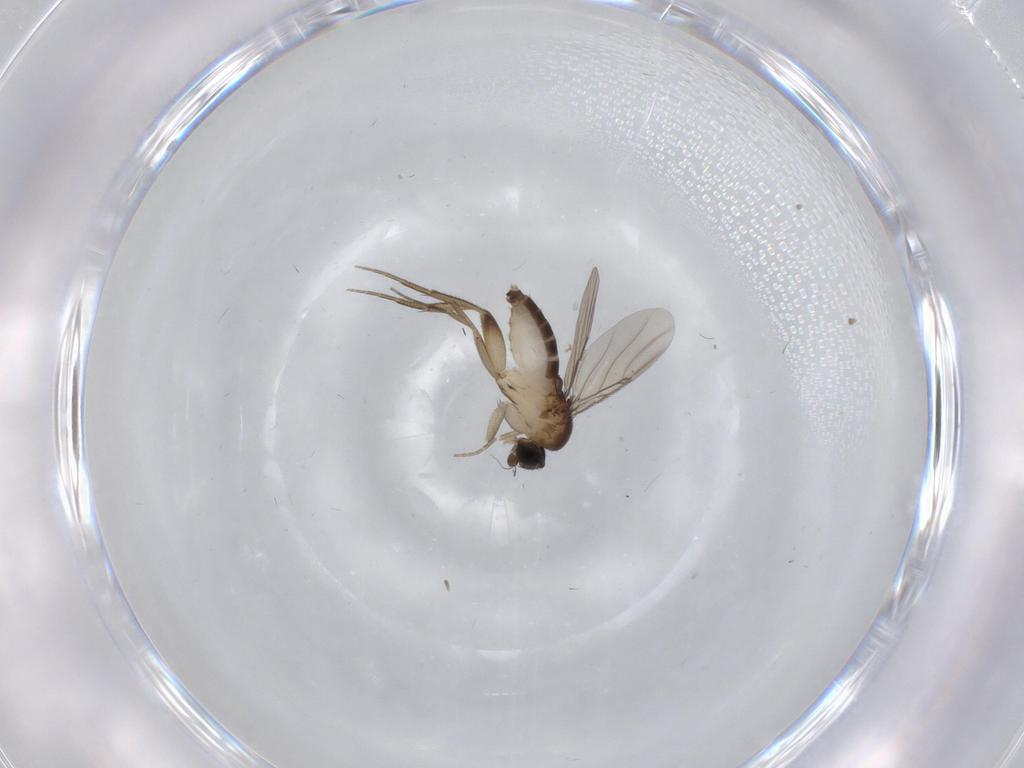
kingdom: Animalia
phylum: Arthropoda
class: Insecta
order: Diptera
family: Phoridae
